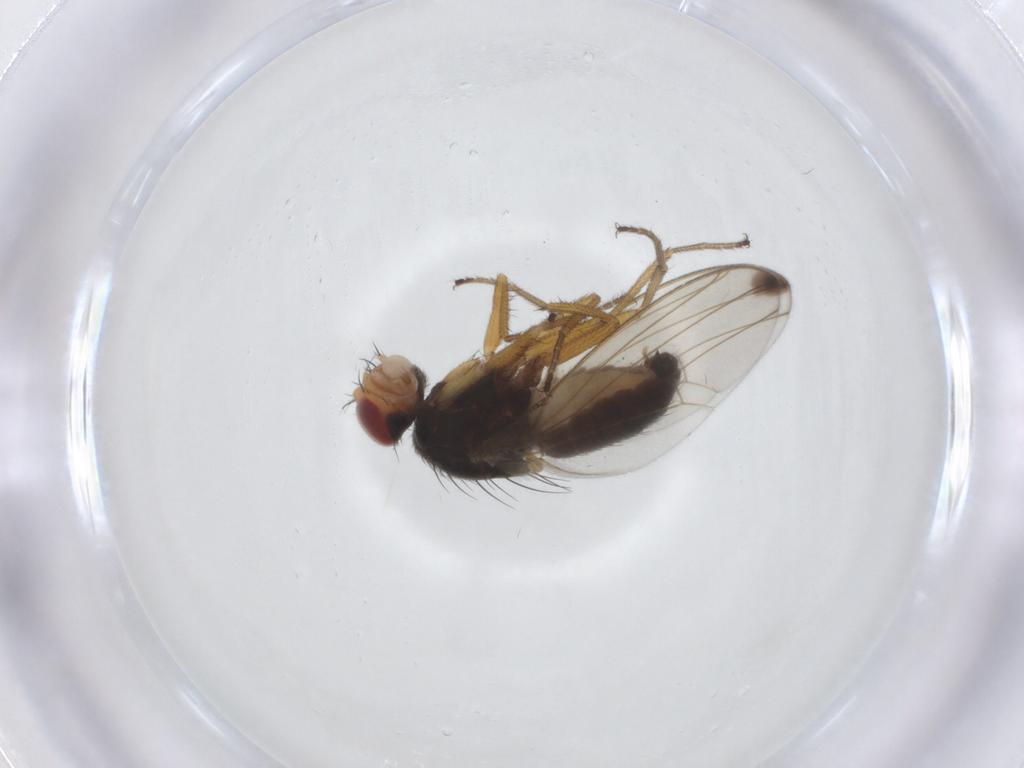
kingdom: Animalia
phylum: Arthropoda
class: Insecta
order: Diptera
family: Drosophilidae
